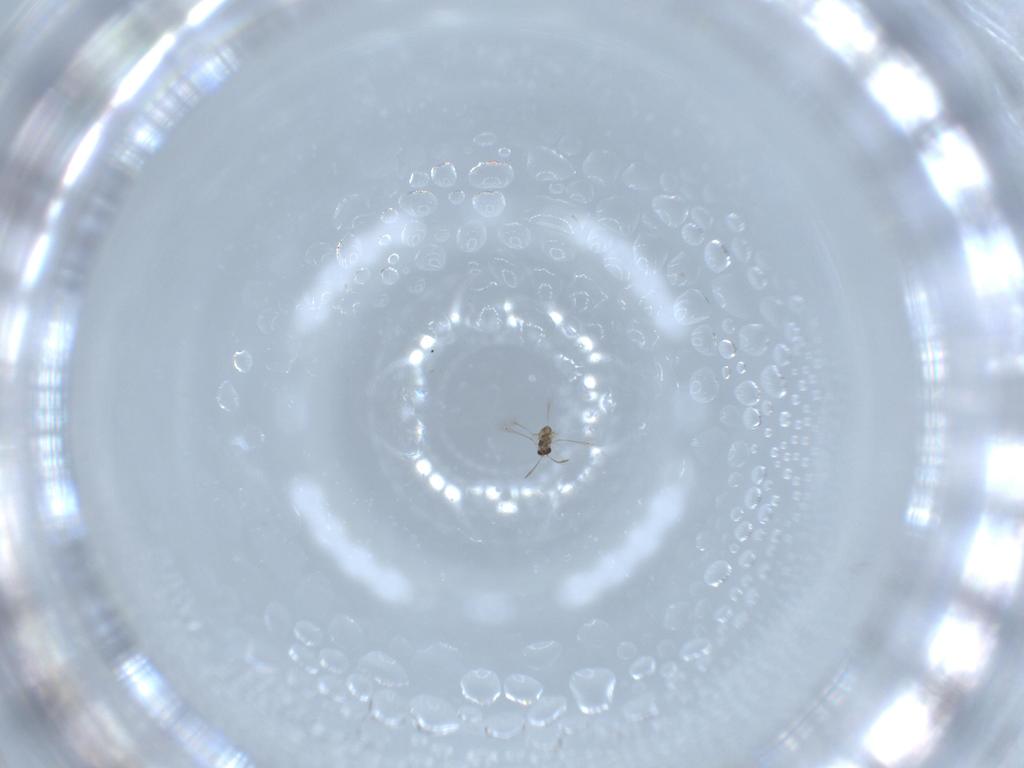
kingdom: Animalia
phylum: Arthropoda
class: Insecta
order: Hymenoptera
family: Mymaridae
